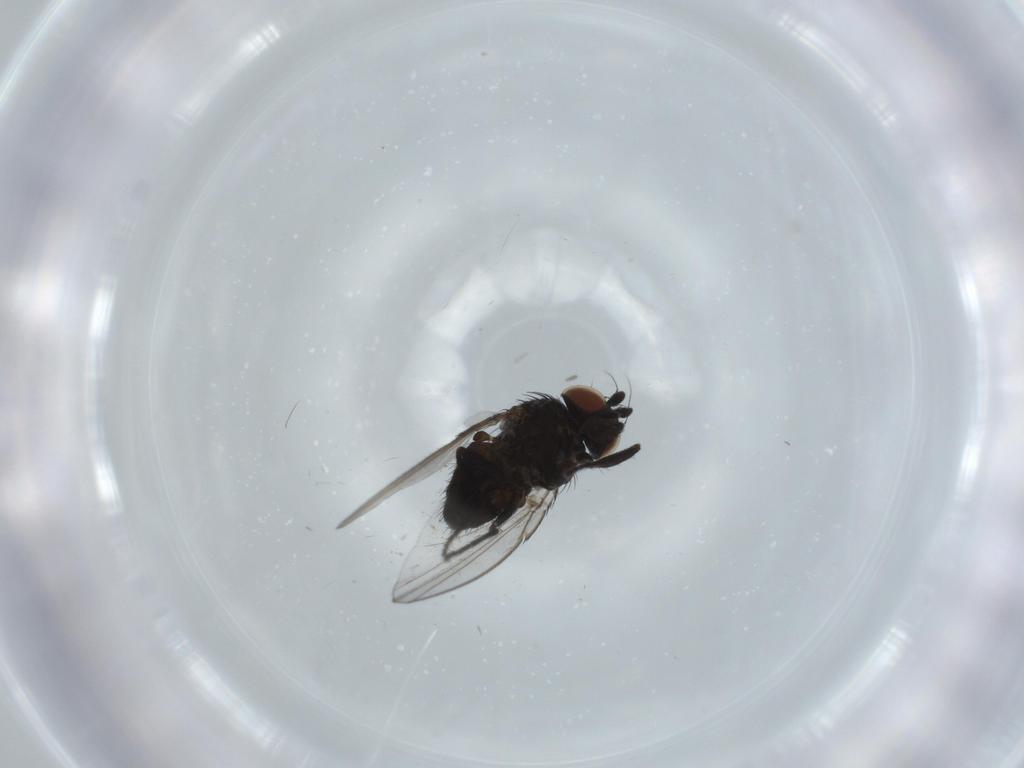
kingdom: Animalia
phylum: Arthropoda
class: Insecta
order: Diptera
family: Milichiidae
